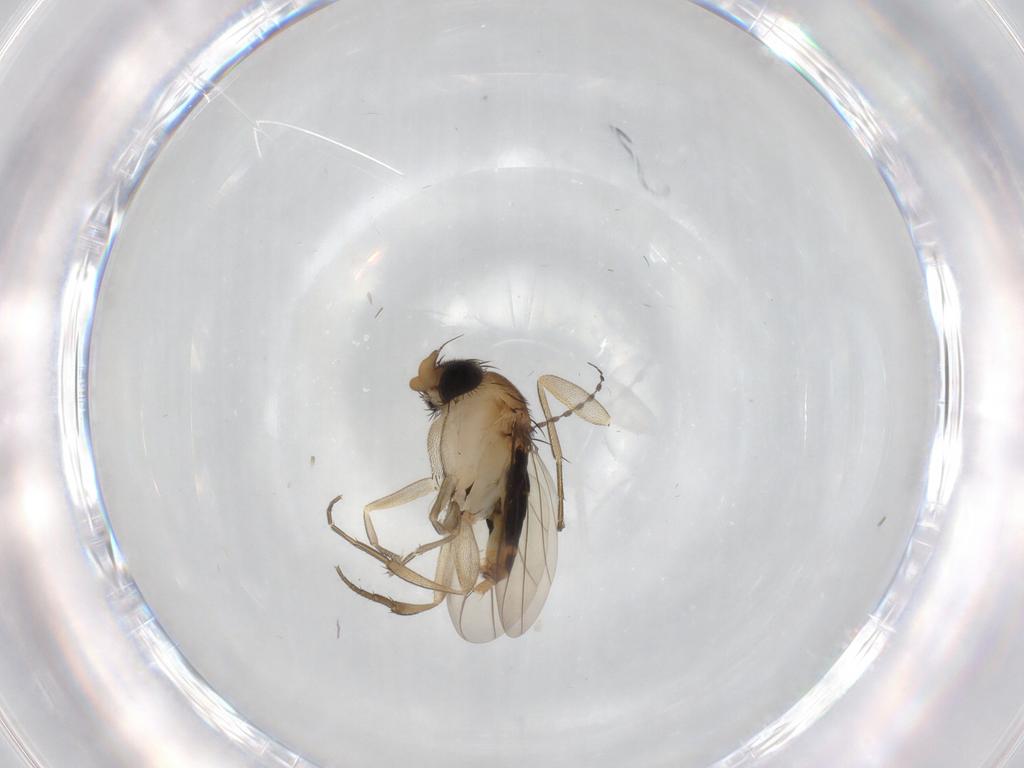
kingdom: Animalia
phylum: Arthropoda
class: Insecta
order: Diptera
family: Phoridae
